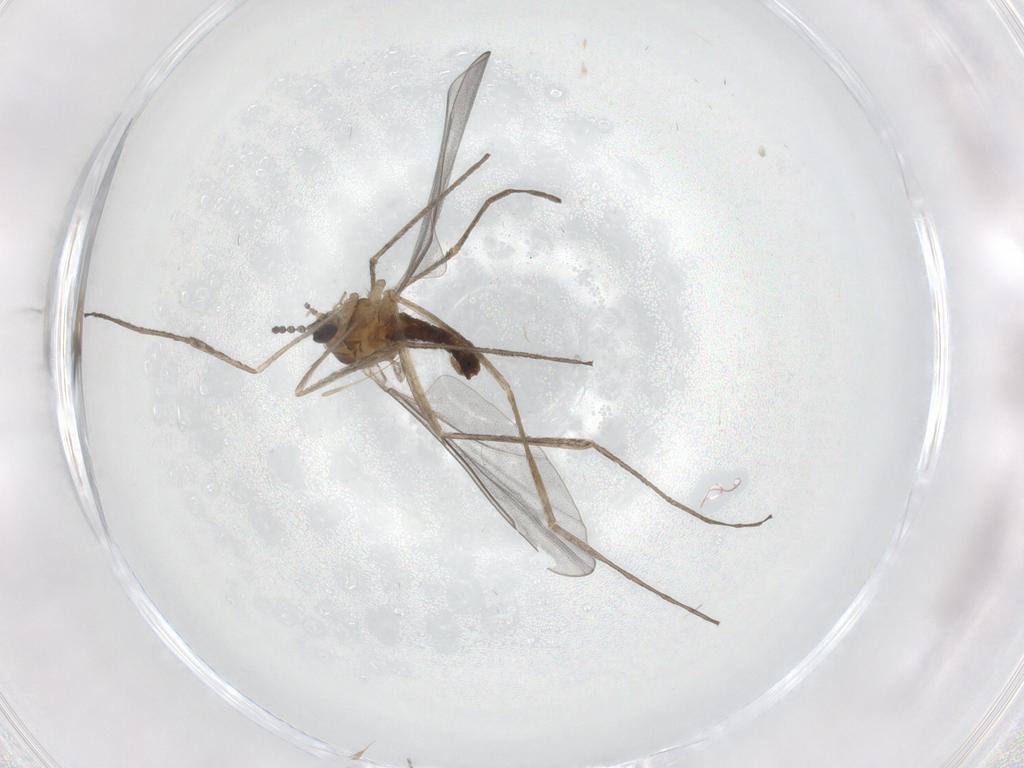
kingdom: Animalia
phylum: Arthropoda
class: Insecta
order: Diptera
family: Cecidomyiidae
